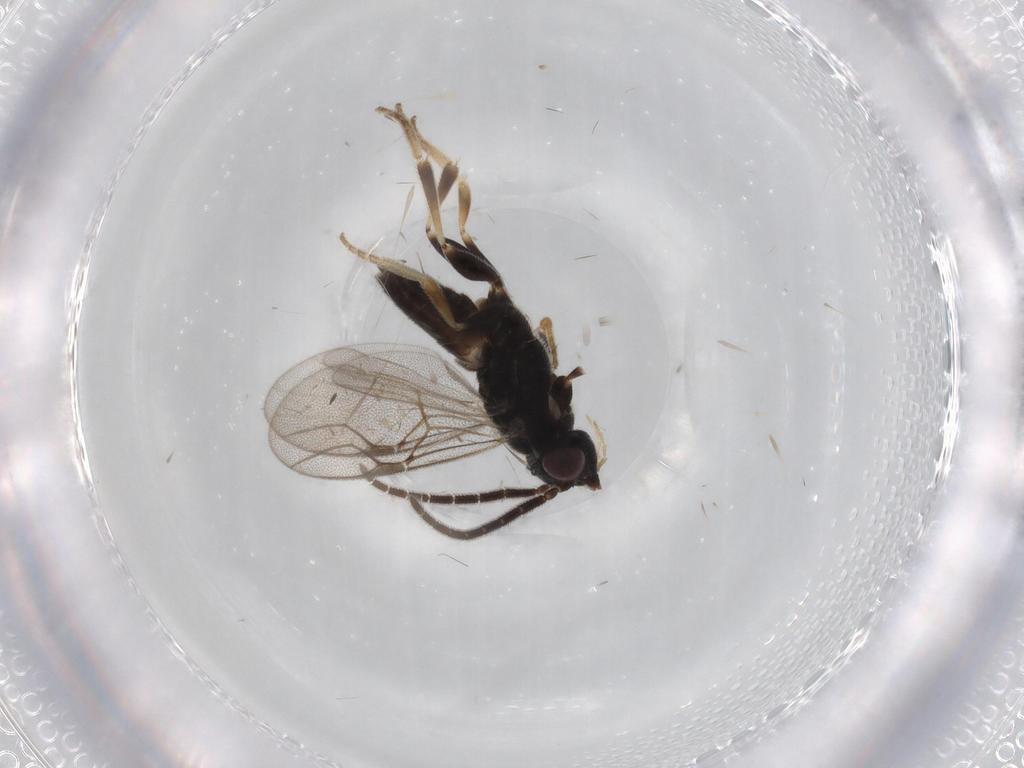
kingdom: Animalia
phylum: Arthropoda
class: Insecta
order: Hymenoptera
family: Dryinidae
